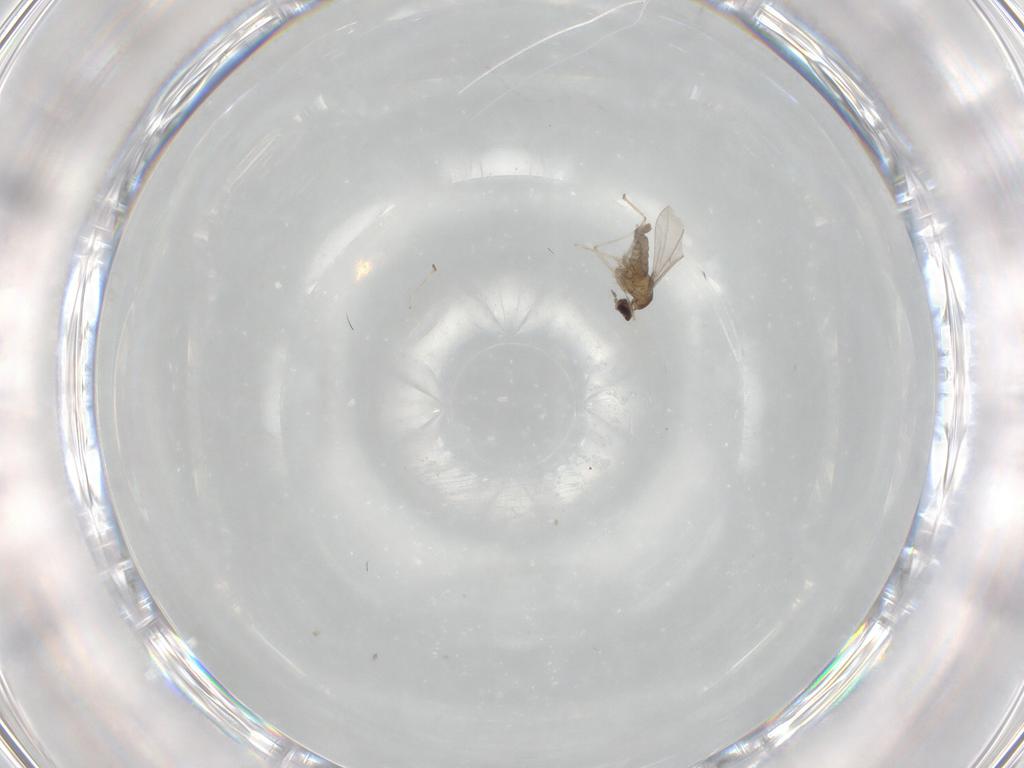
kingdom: Animalia
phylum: Arthropoda
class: Insecta
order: Diptera
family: Cecidomyiidae
